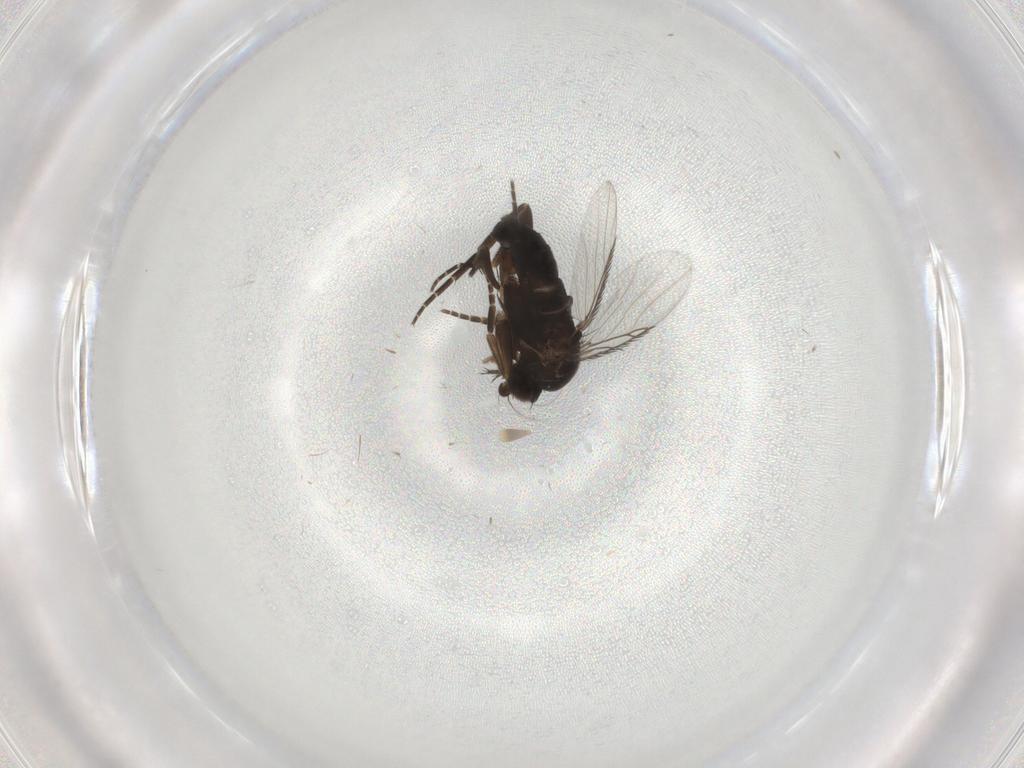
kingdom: Animalia
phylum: Arthropoda
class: Insecta
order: Diptera
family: Phoridae
